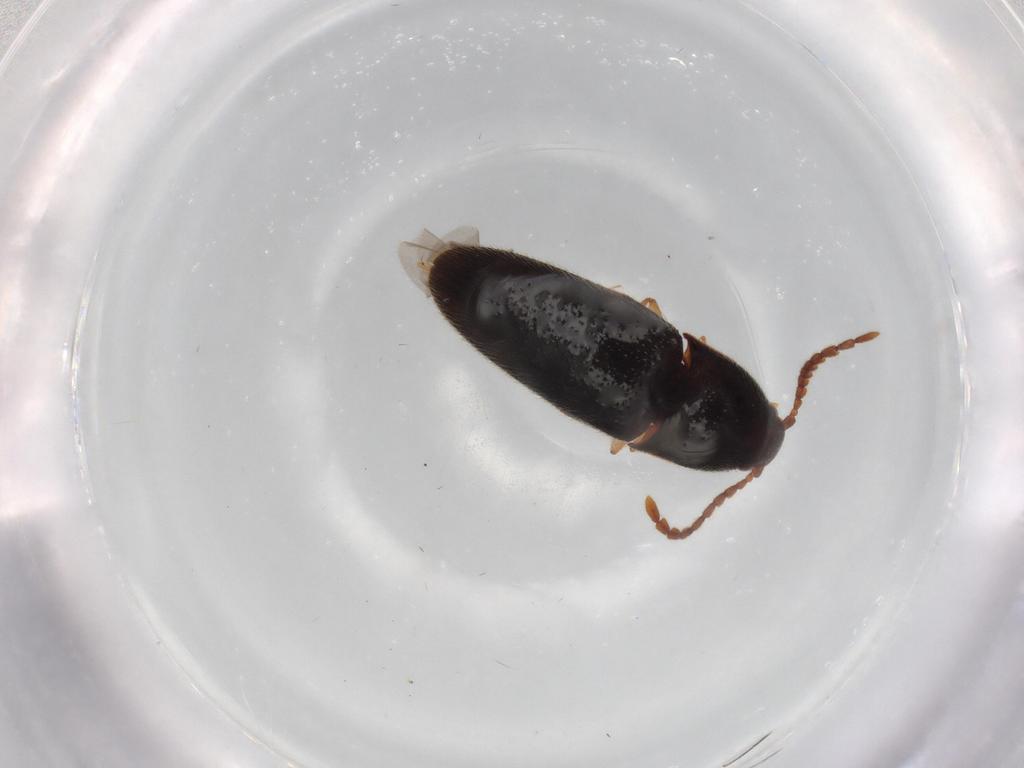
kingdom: Animalia
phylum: Arthropoda
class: Insecta
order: Coleoptera
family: Elateridae
